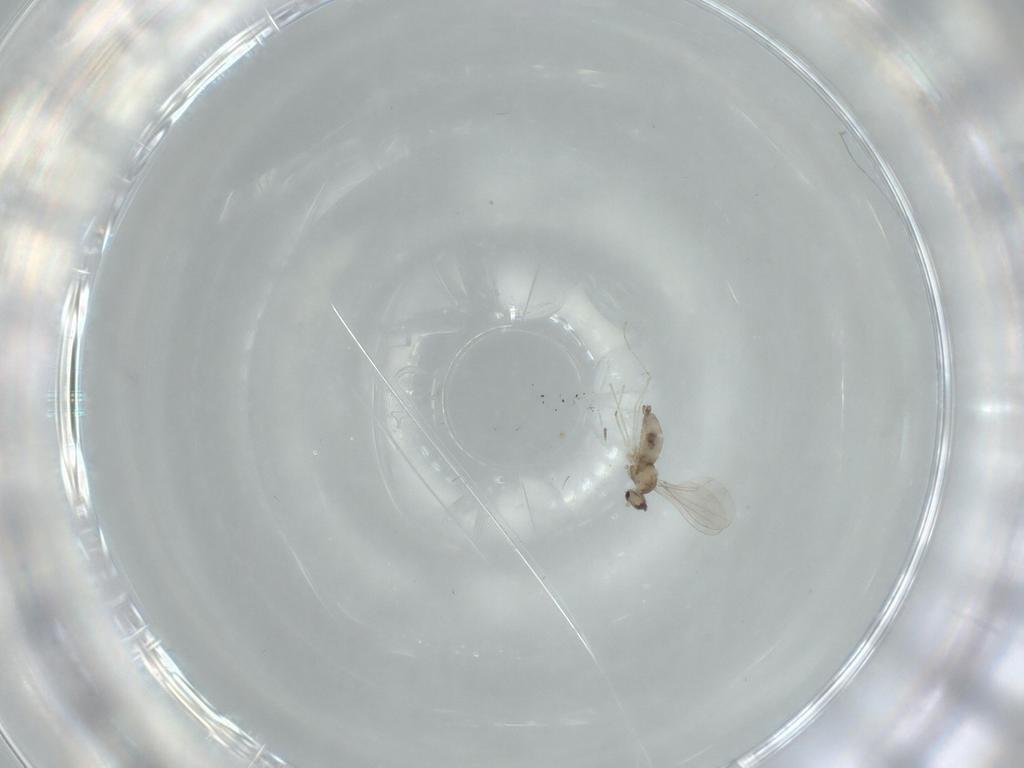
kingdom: Animalia
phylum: Arthropoda
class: Insecta
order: Diptera
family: Cecidomyiidae
